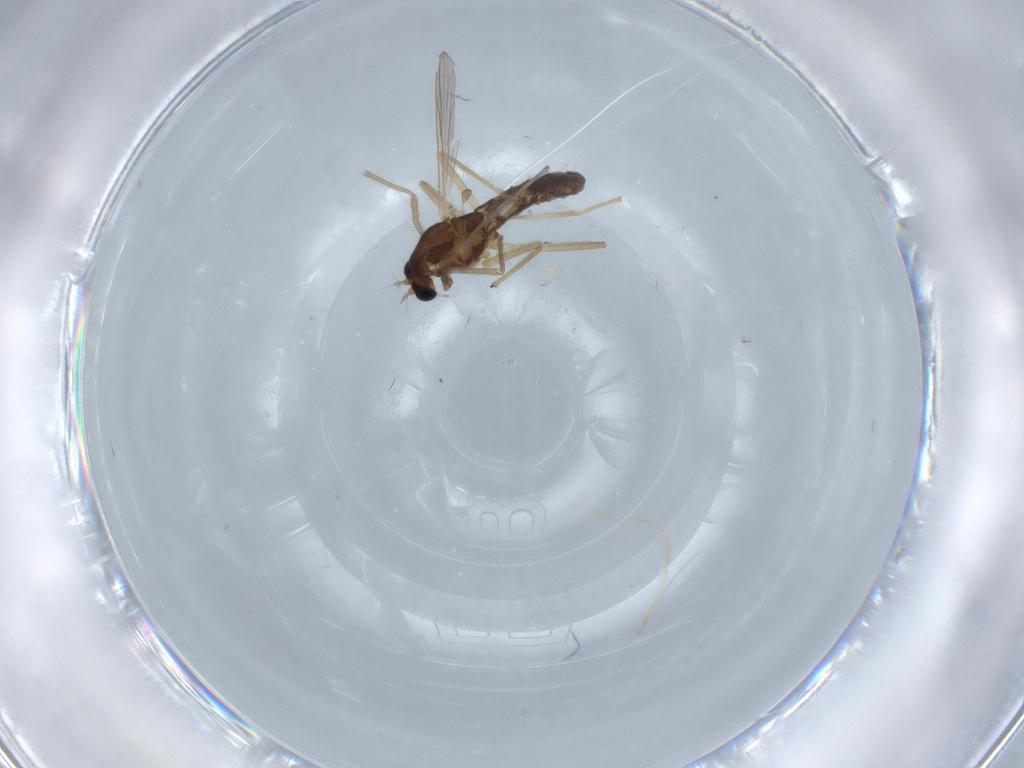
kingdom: Animalia
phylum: Arthropoda
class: Insecta
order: Diptera
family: Chironomidae
